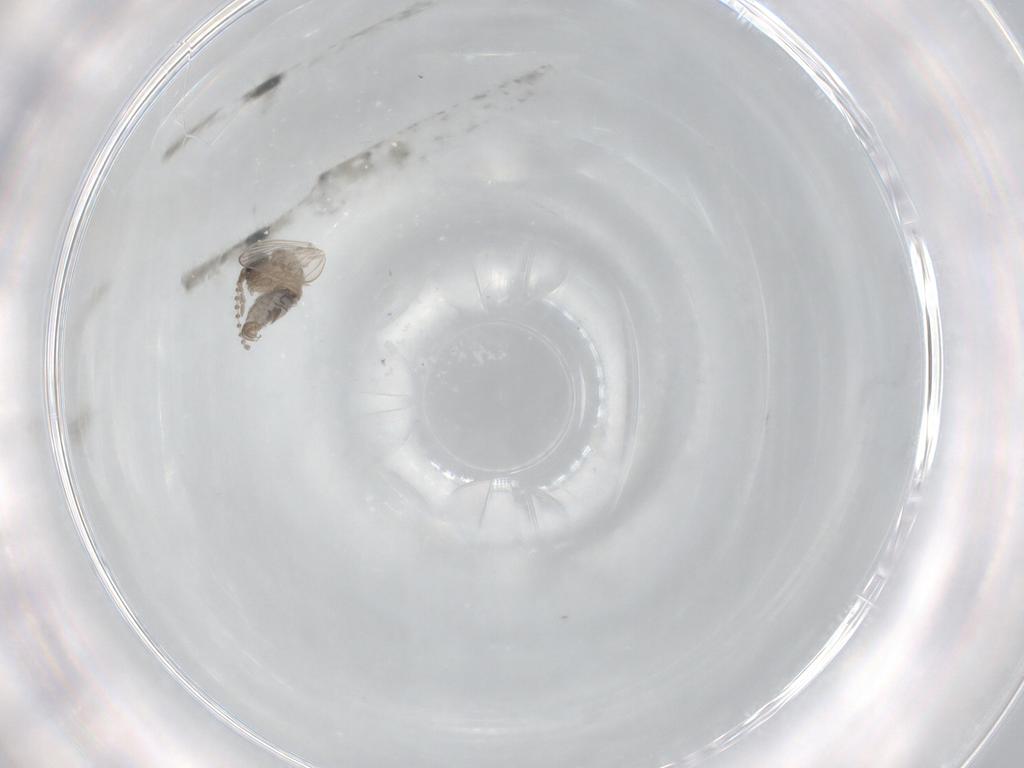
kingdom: Animalia
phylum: Arthropoda
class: Insecta
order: Diptera
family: Psychodidae
